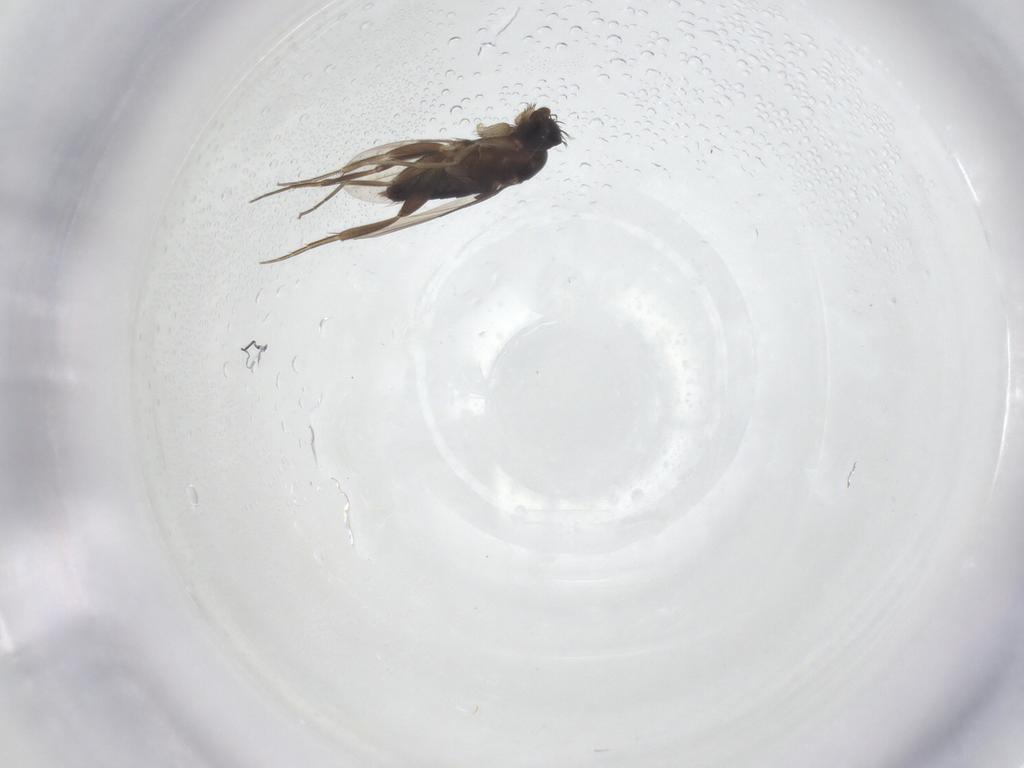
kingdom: Animalia
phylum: Arthropoda
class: Insecta
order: Diptera
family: Phoridae
